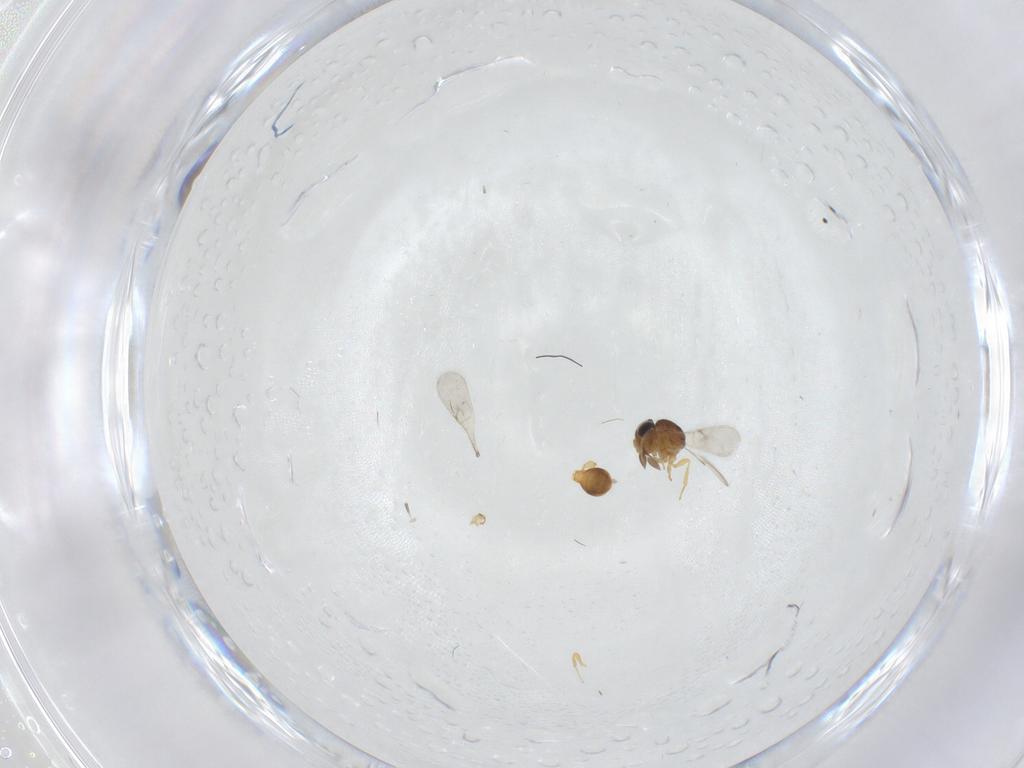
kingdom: Animalia
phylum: Arthropoda
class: Insecta
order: Hymenoptera
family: Scelionidae
